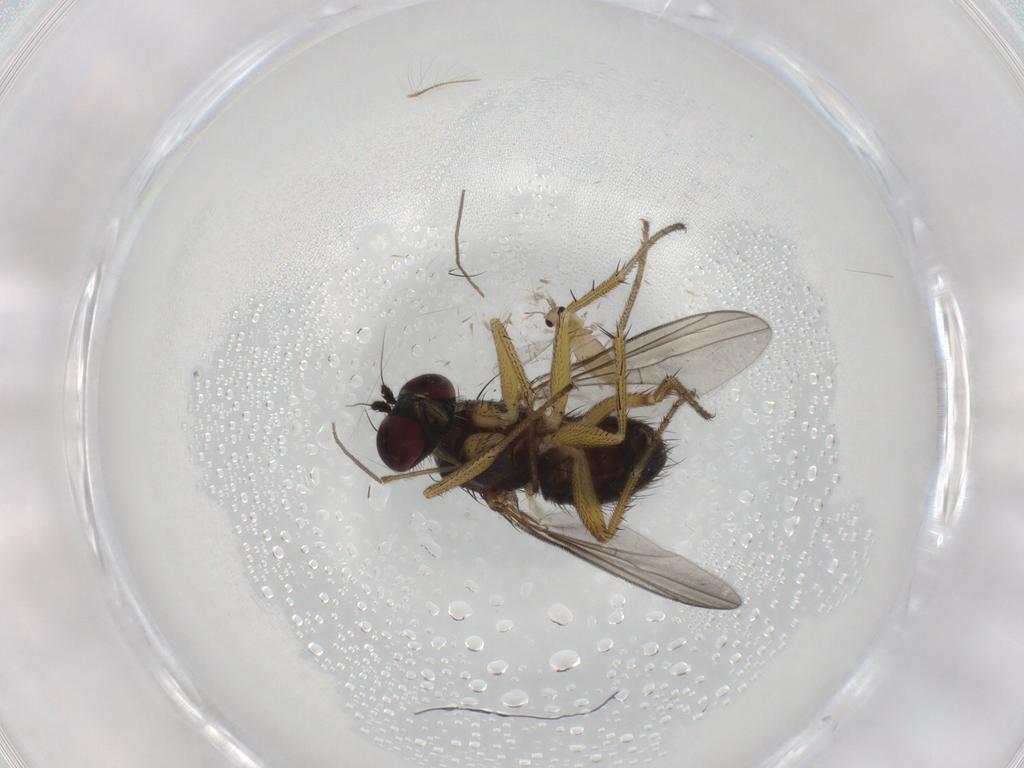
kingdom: Animalia
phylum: Arthropoda
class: Insecta
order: Diptera
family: Dolichopodidae
